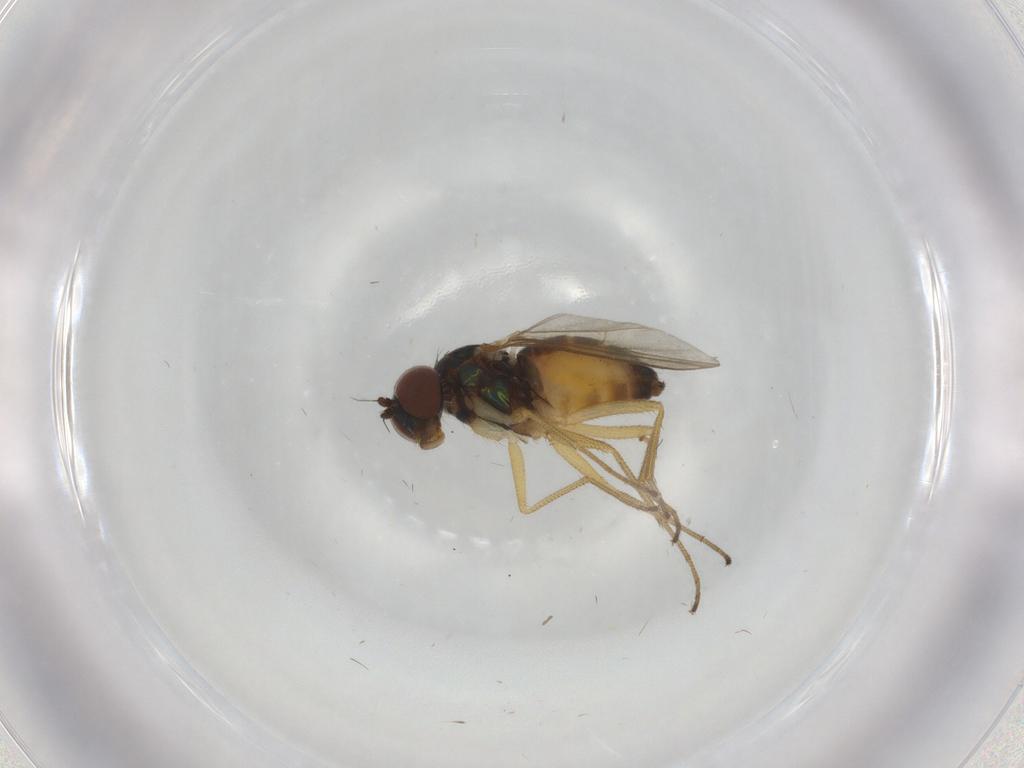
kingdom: Animalia
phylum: Arthropoda
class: Insecta
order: Diptera
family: Dolichopodidae
